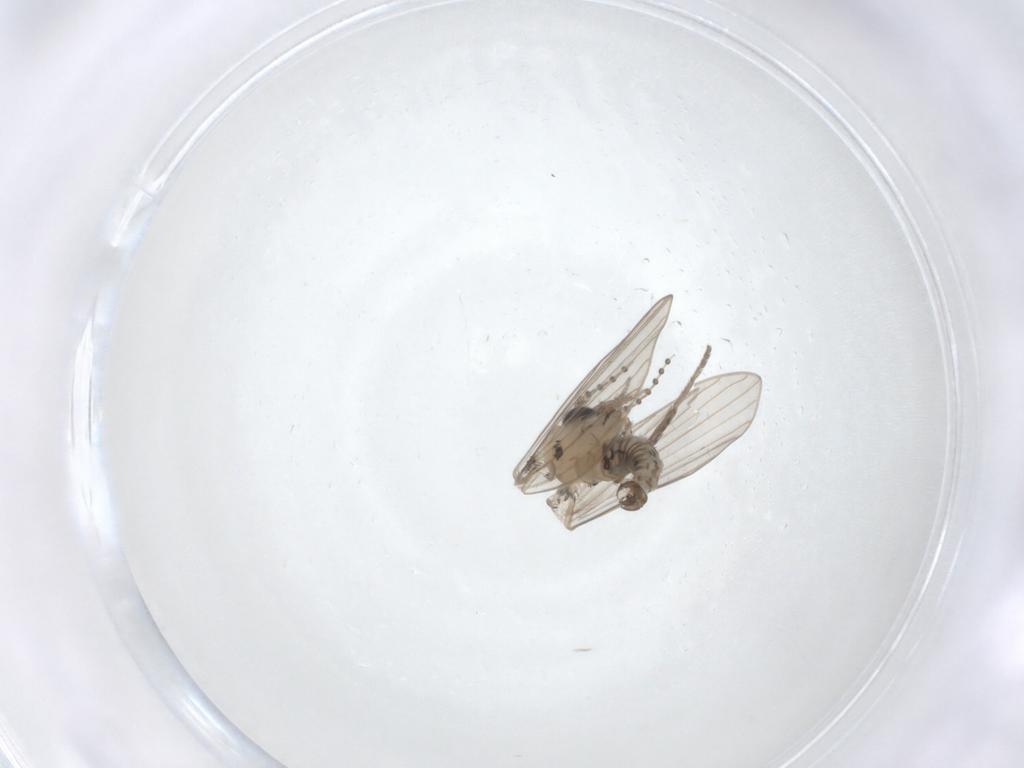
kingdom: Animalia
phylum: Arthropoda
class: Insecta
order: Diptera
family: Psychodidae
